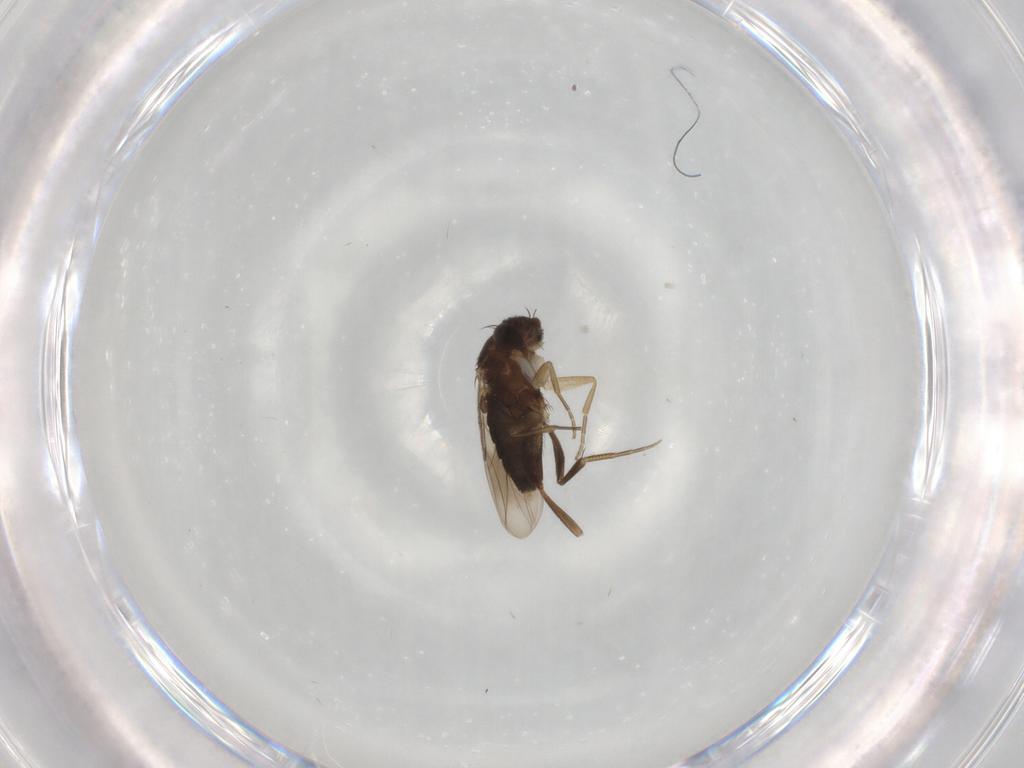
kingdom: Animalia
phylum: Arthropoda
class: Insecta
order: Diptera
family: Phoridae
